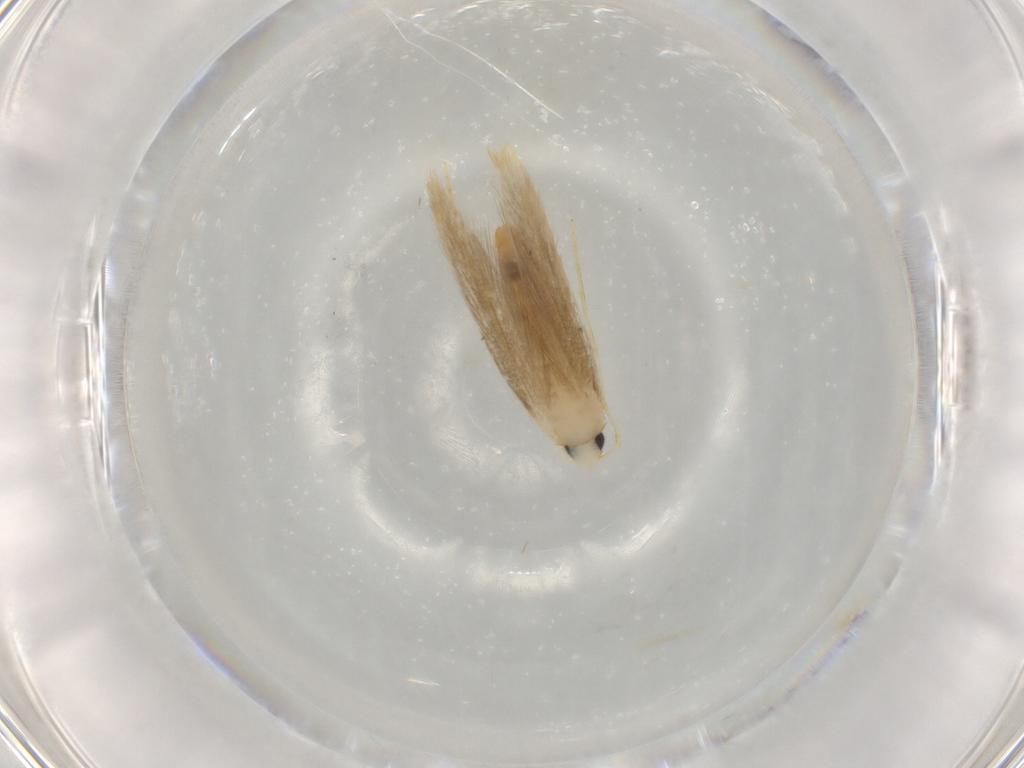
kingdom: Animalia
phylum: Arthropoda
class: Insecta
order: Lepidoptera
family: Tineidae
